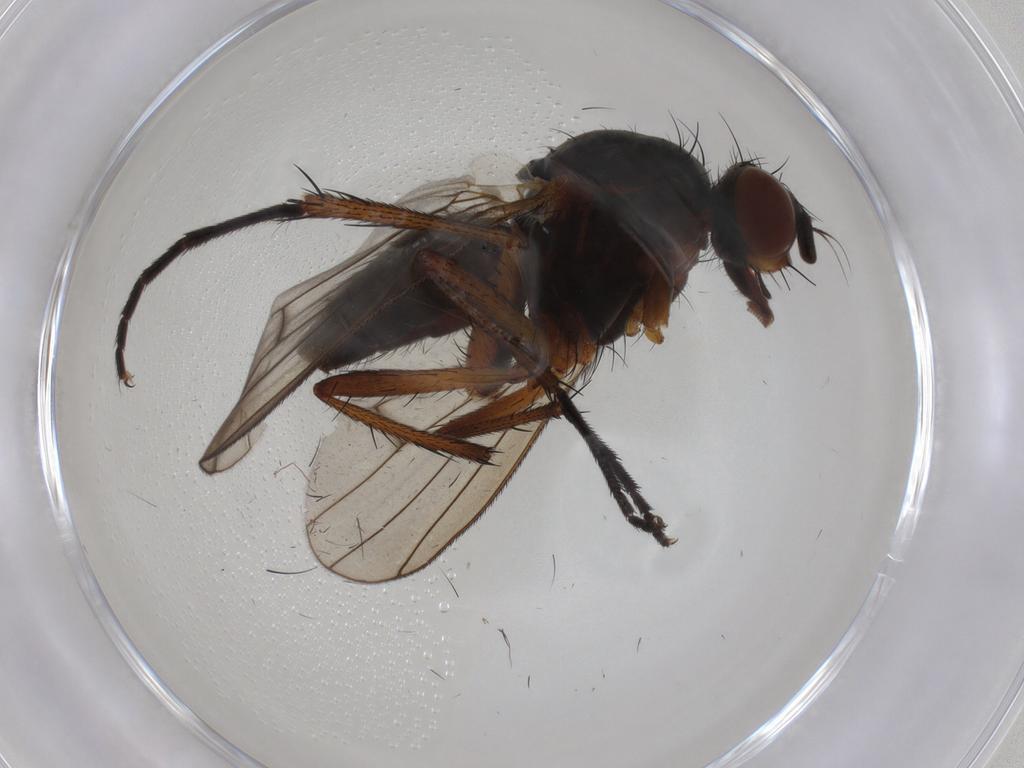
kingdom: Animalia
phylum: Arthropoda
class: Insecta
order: Diptera
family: Anthomyiidae
